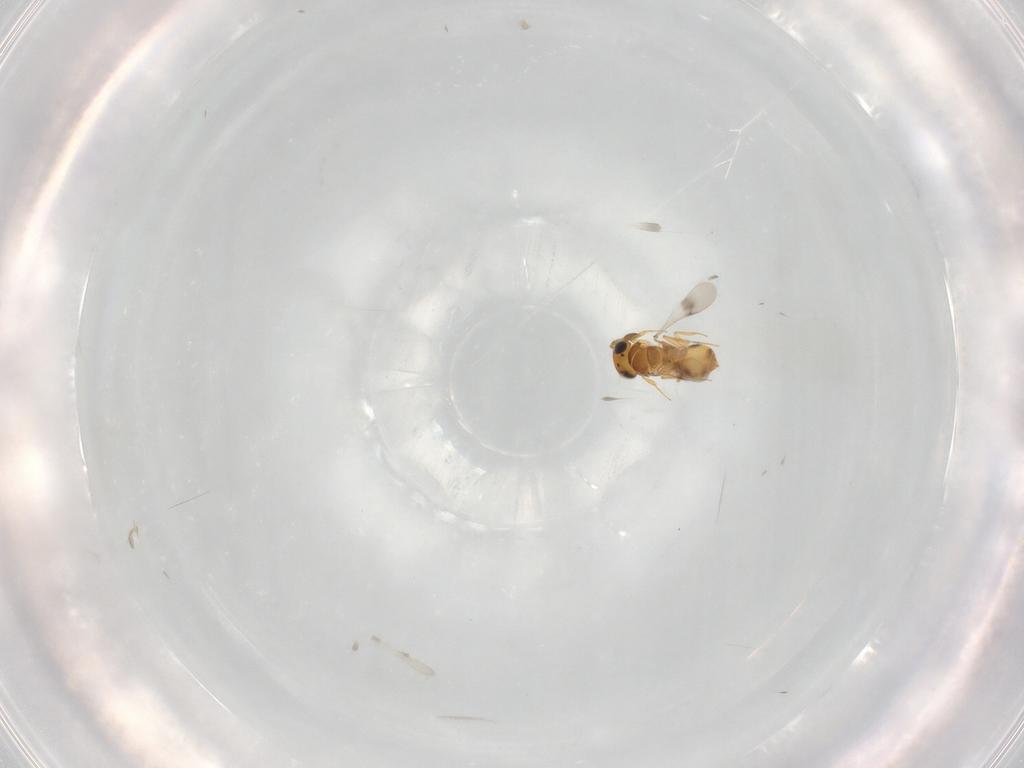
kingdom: Animalia
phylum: Arthropoda
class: Insecta
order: Hymenoptera
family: Scelionidae
